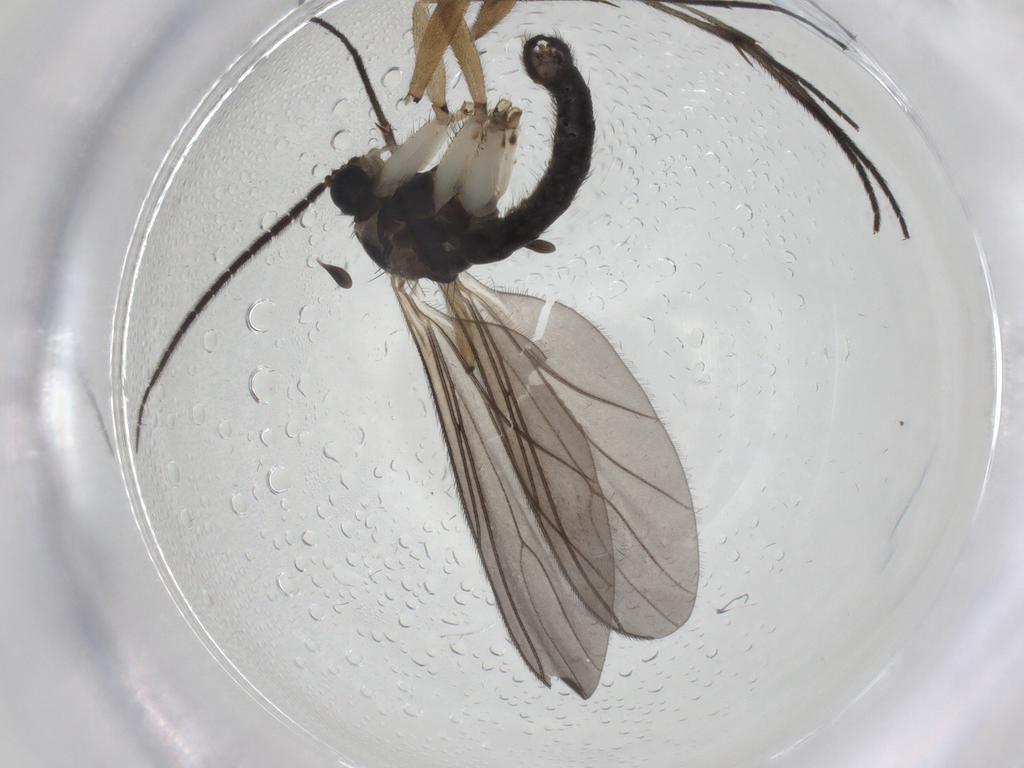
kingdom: Animalia
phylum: Arthropoda
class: Insecta
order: Diptera
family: Sciaridae
